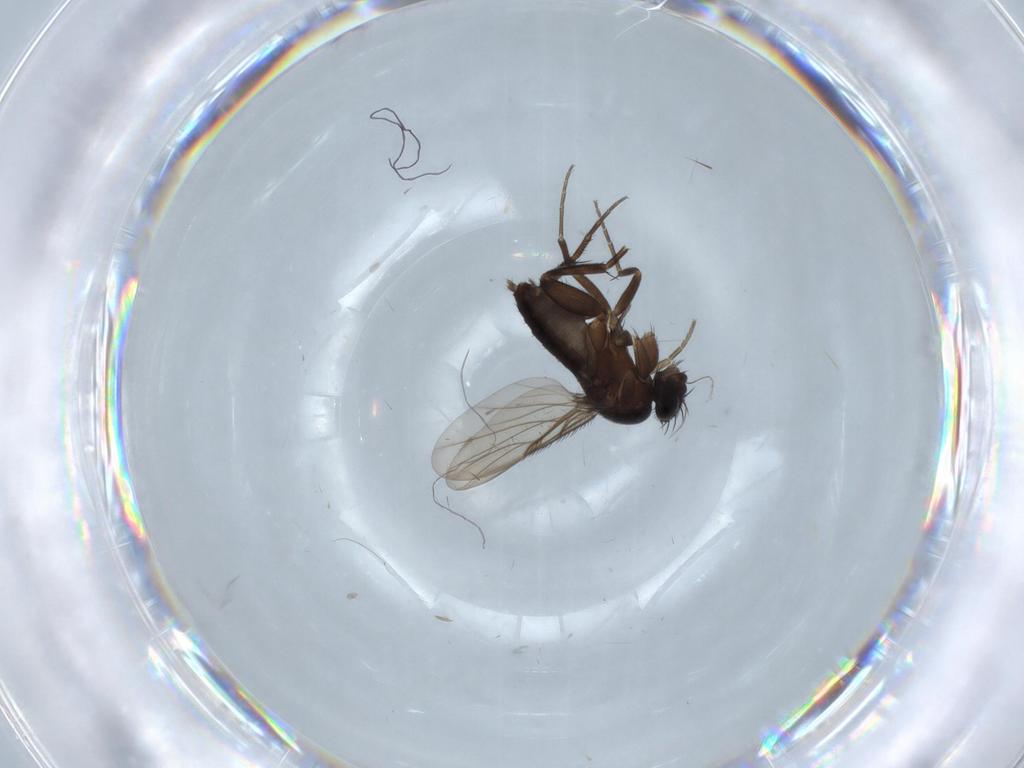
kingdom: Animalia
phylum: Arthropoda
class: Insecta
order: Diptera
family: Phoridae
